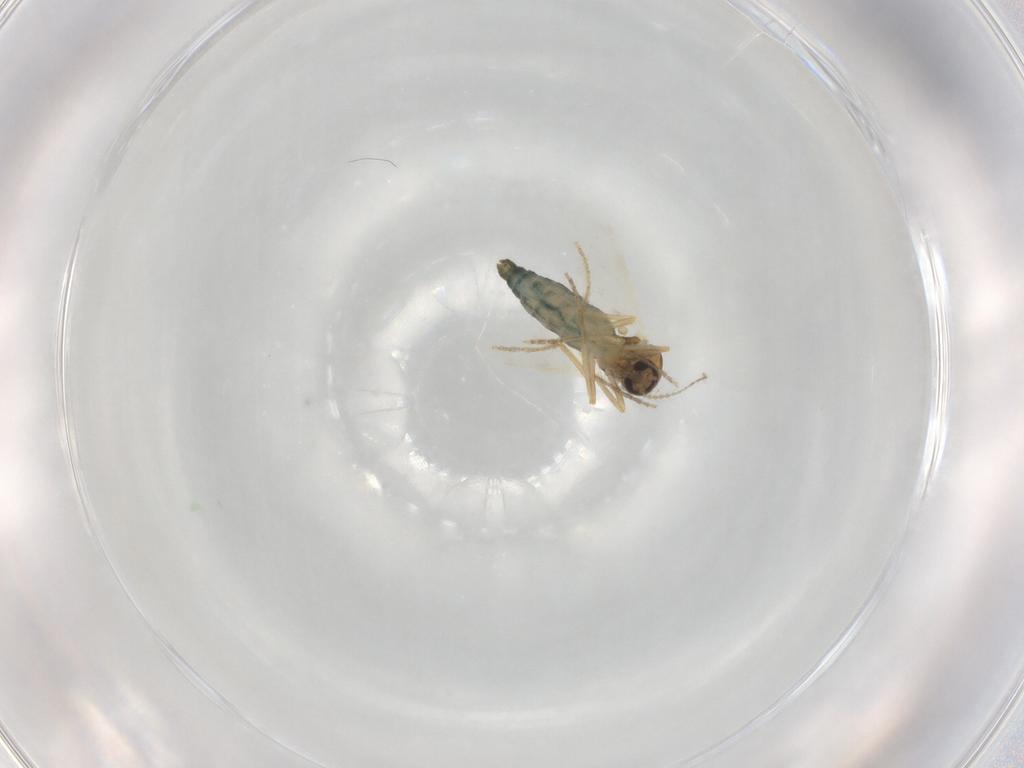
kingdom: Animalia
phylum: Arthropoda
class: Insecta
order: Diptera
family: Ceratopogonidae
